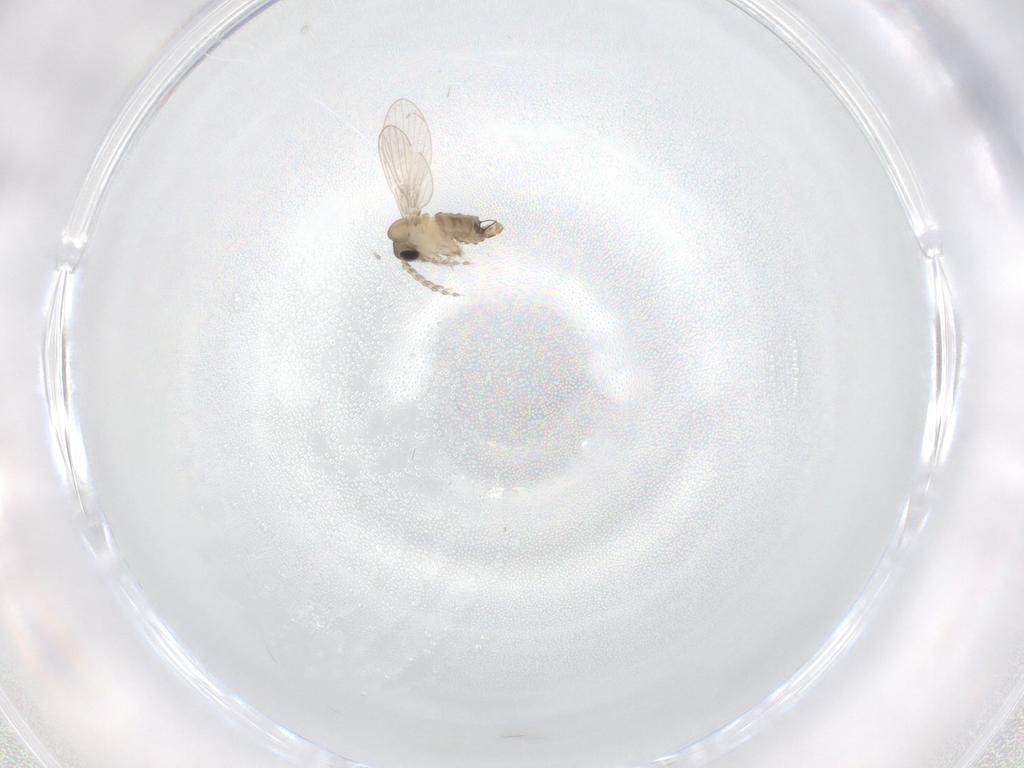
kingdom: Animalia
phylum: Arthropoda
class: Insecta
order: Diptera
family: Psychodidae
